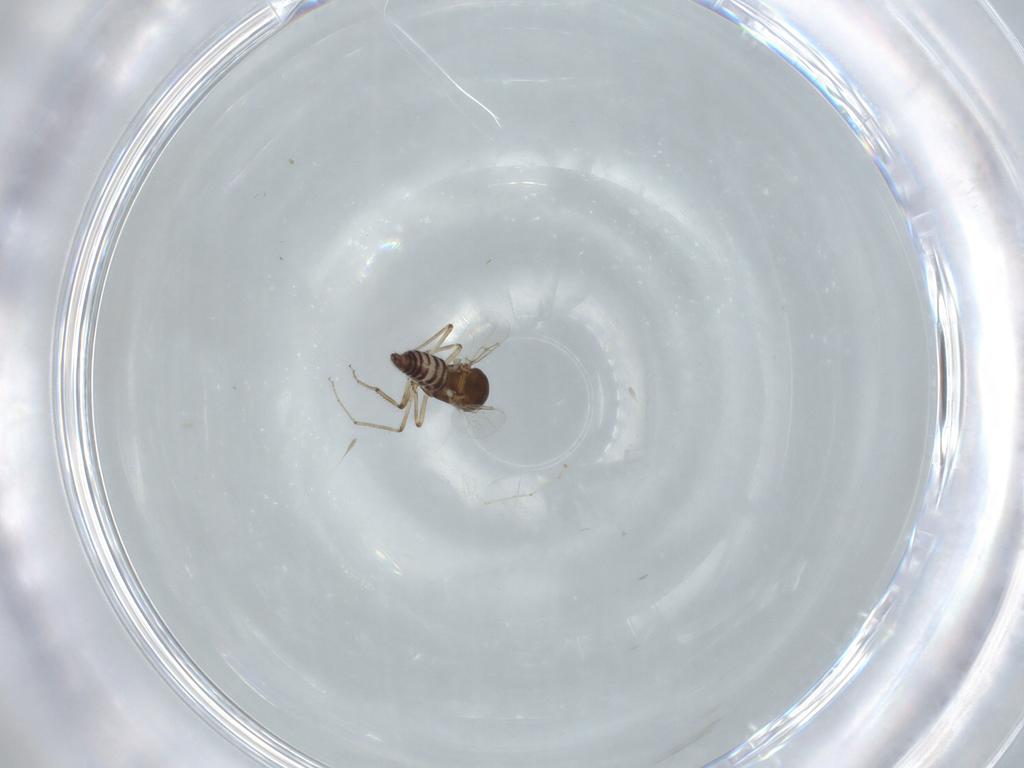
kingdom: Animalia
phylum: Arthropoda
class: Insecta
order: Diptera
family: Ceratopogonidae
